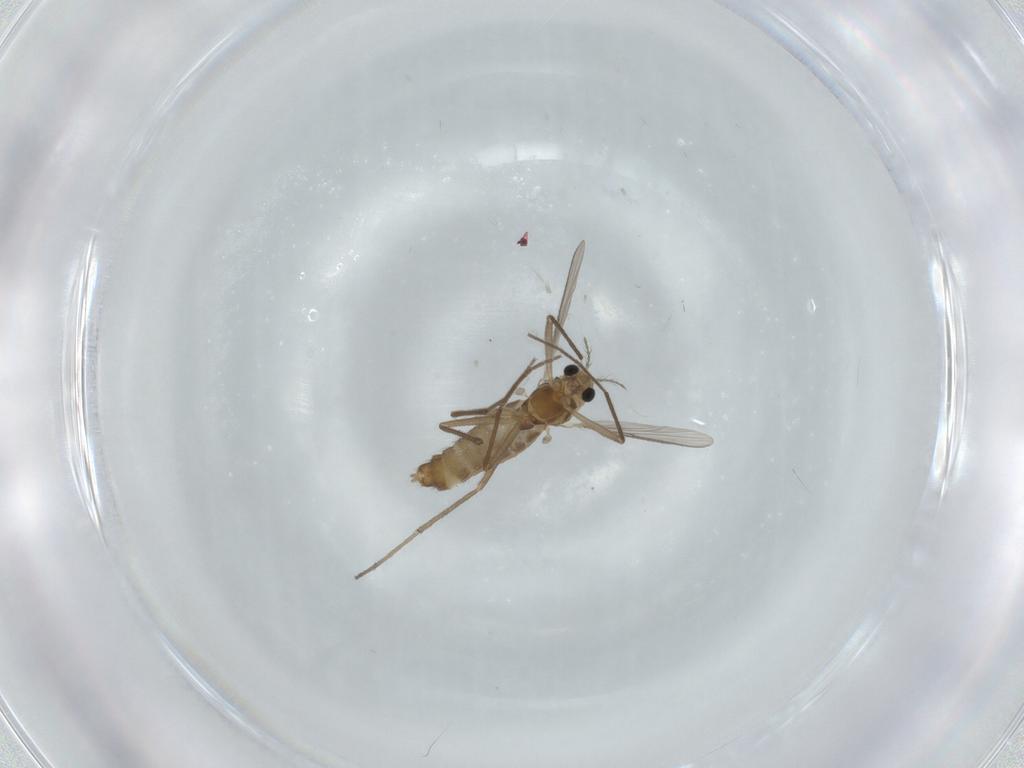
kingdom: Animalia
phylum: Arthropoda
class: Insecta
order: Diptera
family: Chironomidae
